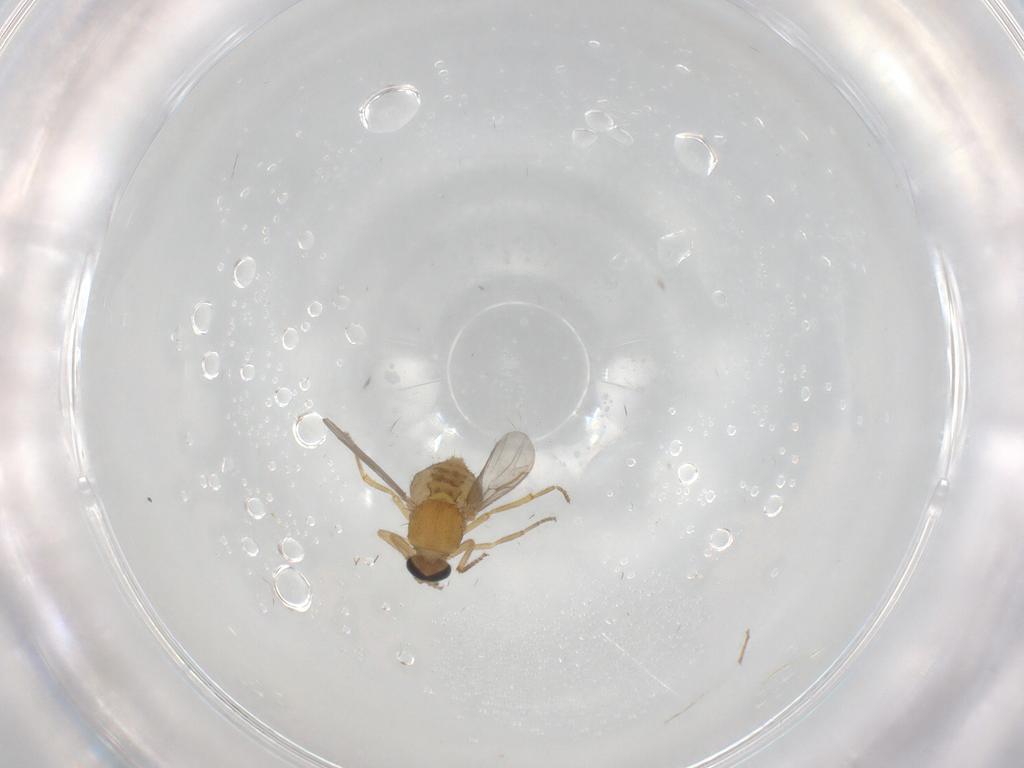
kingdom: Animalia
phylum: Arthropoda
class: Insecta
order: Diptera
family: Ceratopogonidae
